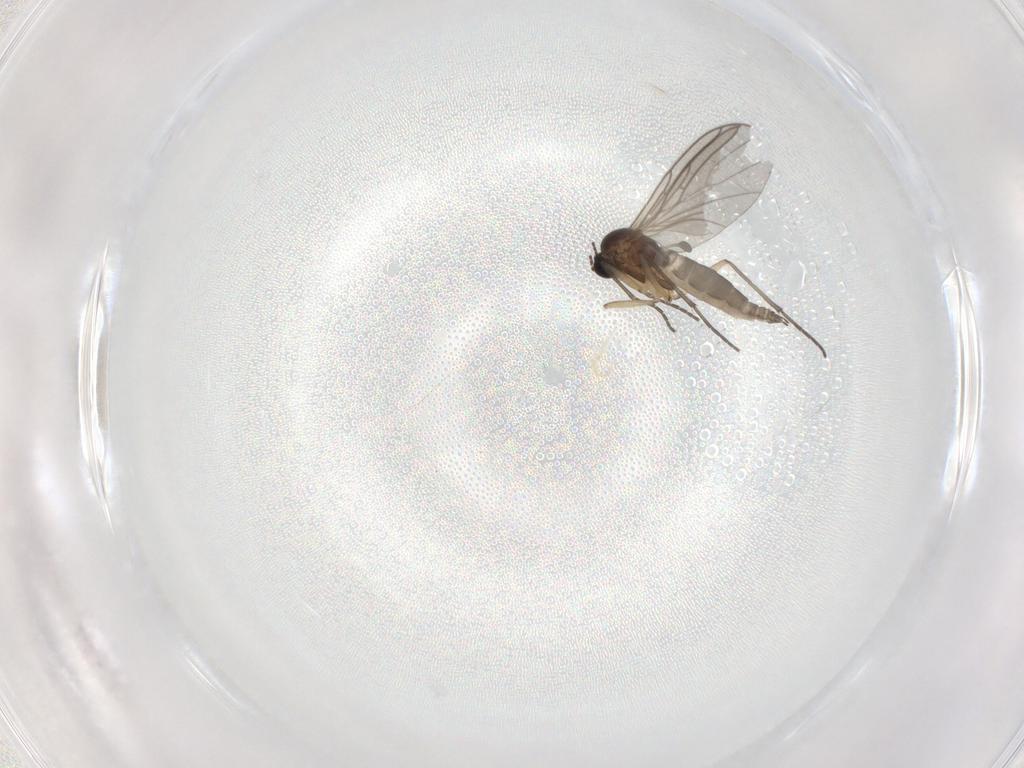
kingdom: Animalia
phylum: Arthropoda
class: Insecta
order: Diptera
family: Sciaridae
